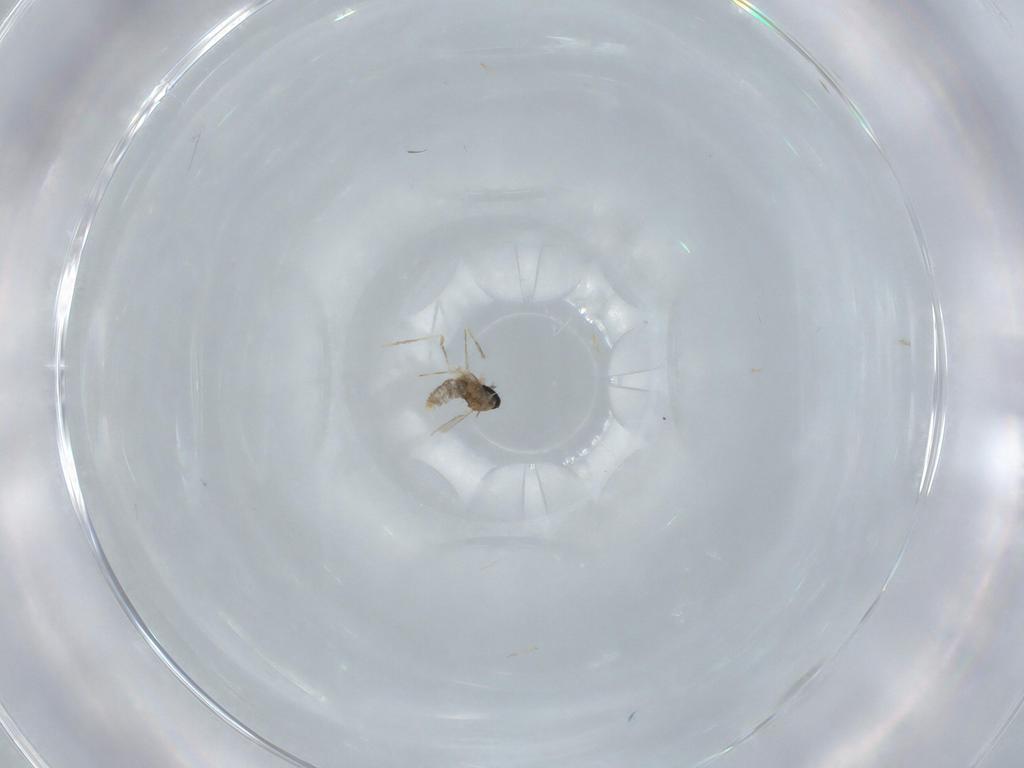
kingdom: Animalia
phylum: Arthropoda
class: Insecta
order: Diptera
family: Cecidomyiidae
